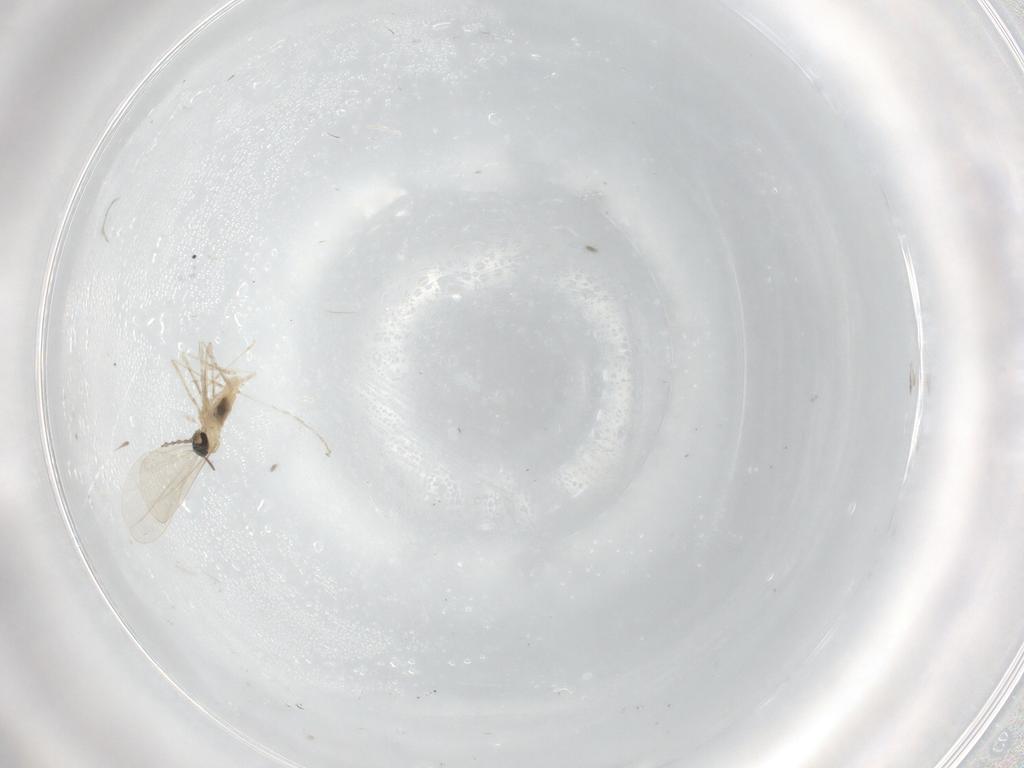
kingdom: Animalia
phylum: Arthropoda
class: Insecta
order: Diptera
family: Cecidomyiidae
